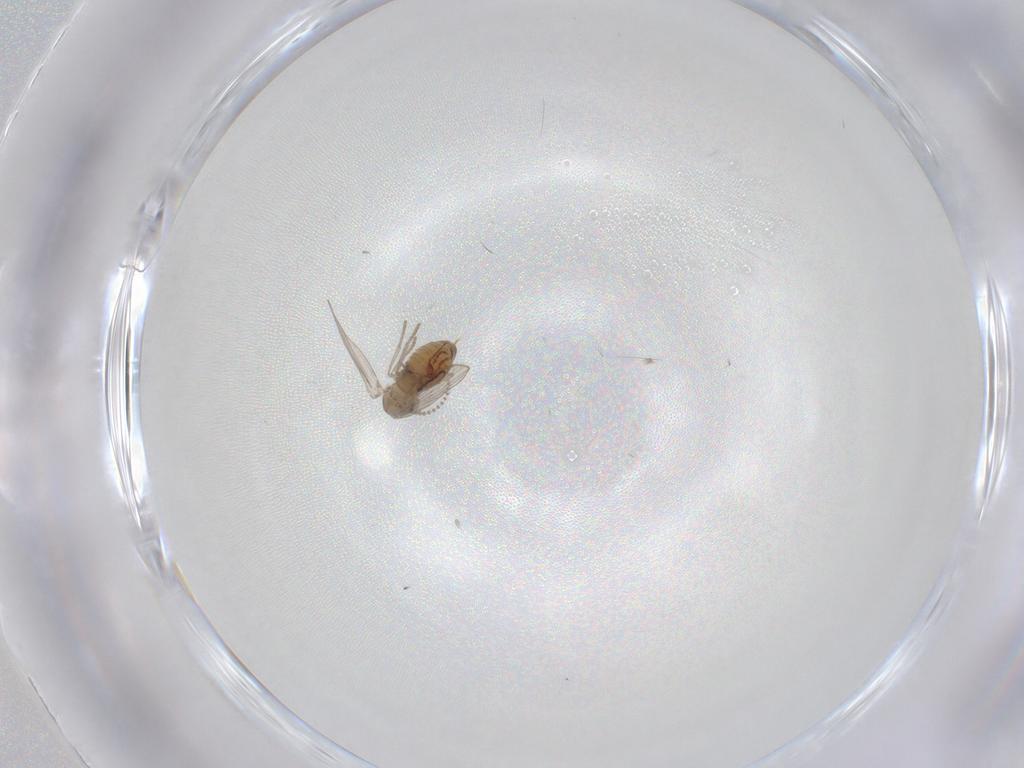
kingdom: Animalia
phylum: Arthropoda
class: Insecta
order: Diptera
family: Psychodidae
